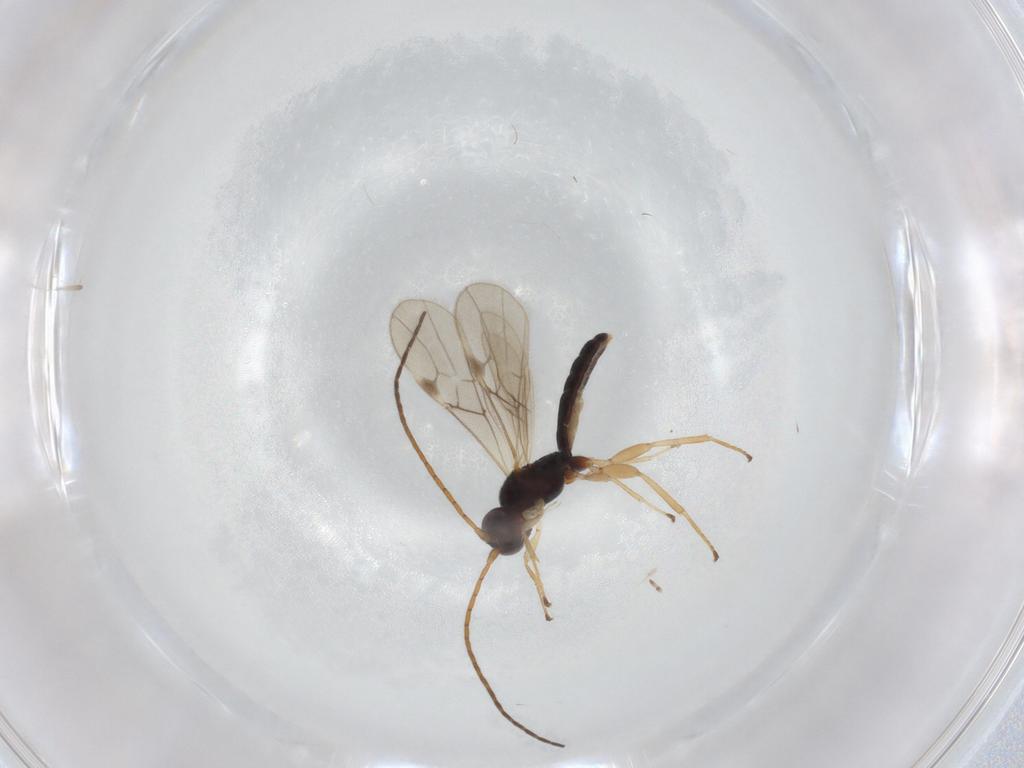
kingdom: Animalia
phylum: Arthropoda
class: Insecta
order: Hymenoptera
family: Braconidae
